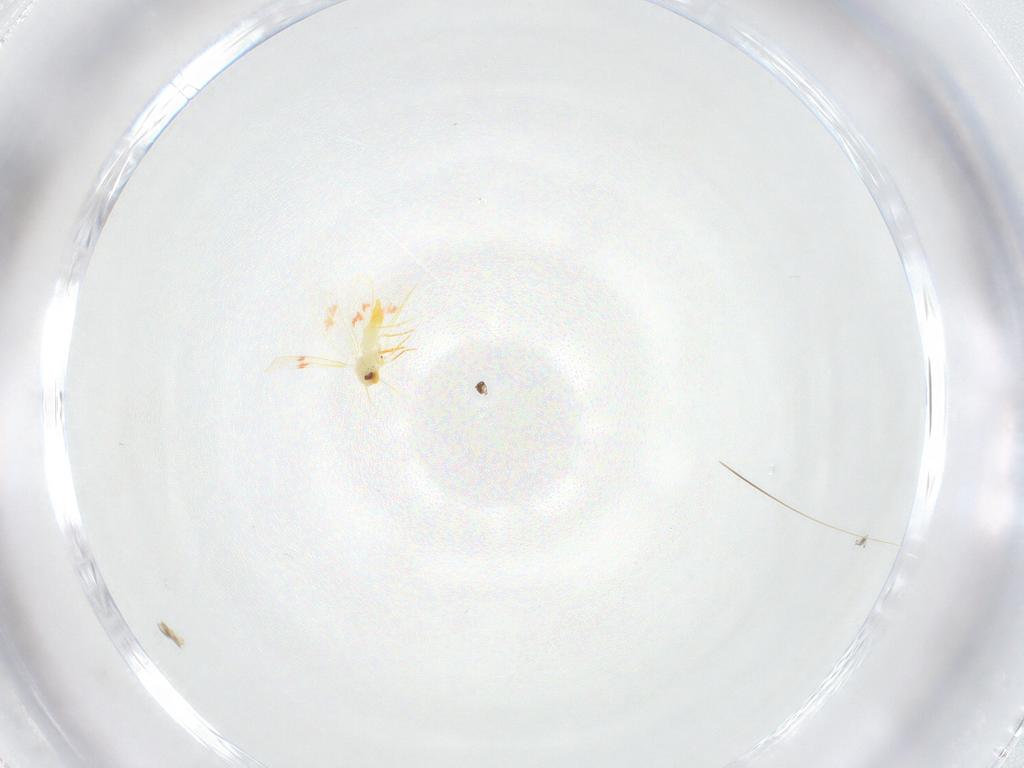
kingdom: Animalia
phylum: Arthropoda
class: Insecta
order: Hemiptera
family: Aleyrodidae
